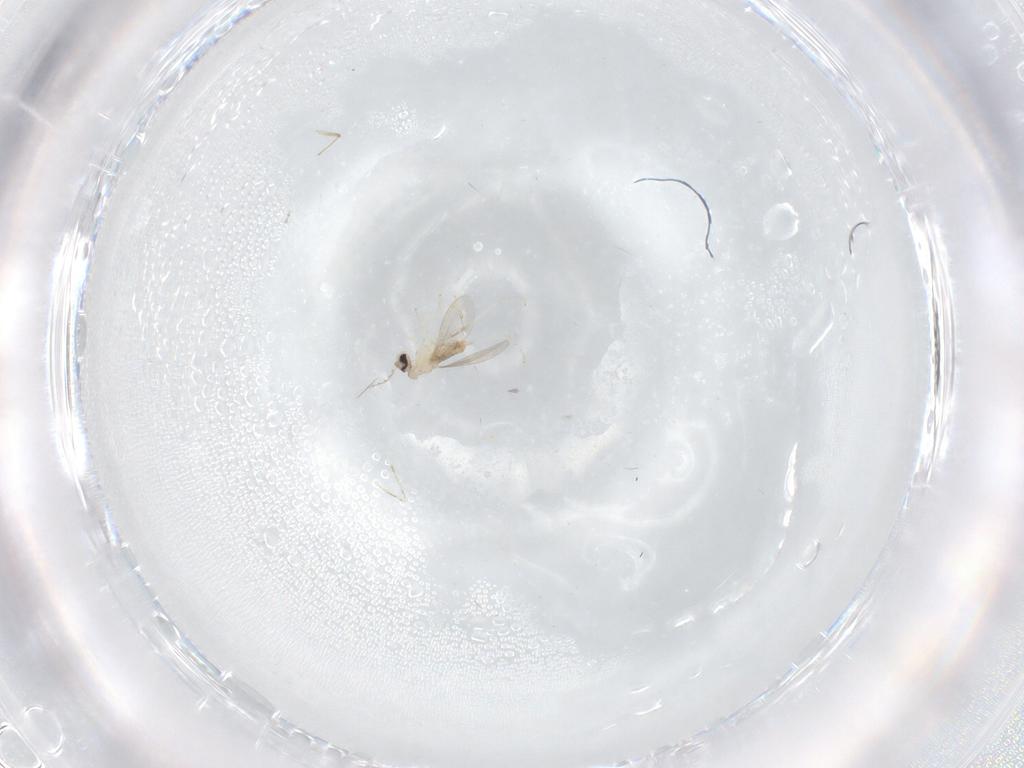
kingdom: Animalia
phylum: Arthropoda
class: Insecta
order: Diptera
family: Cecidomyiidae
